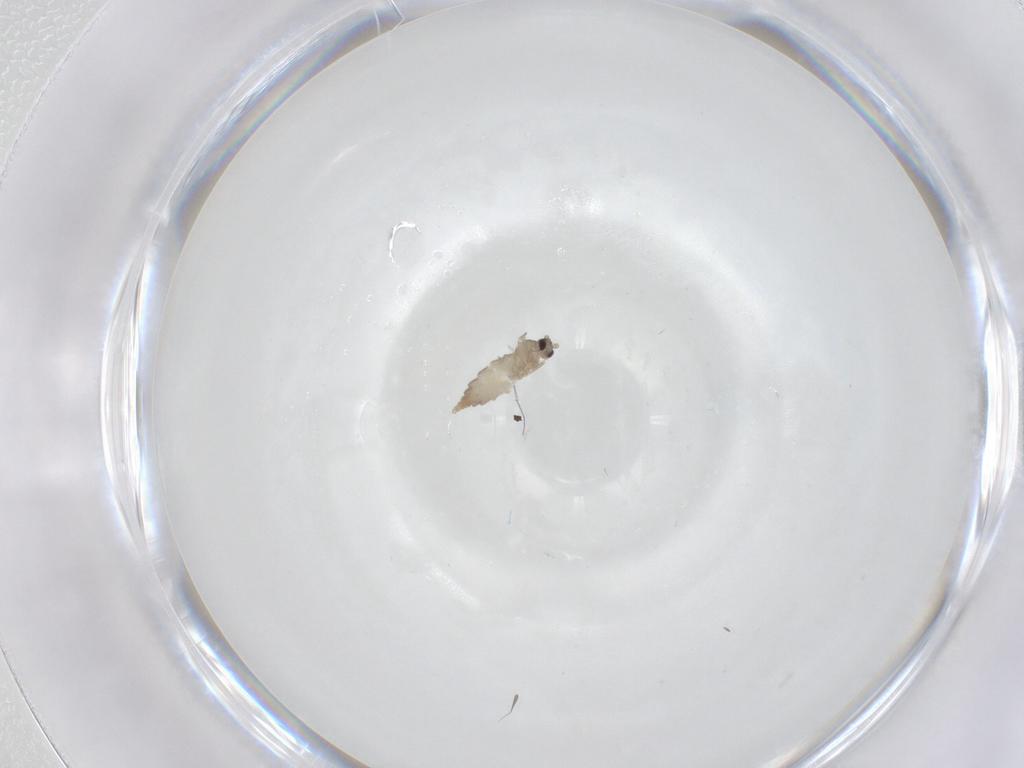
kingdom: Animalia
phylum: Arthropoda
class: Insecta
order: Diptera
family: Cecidomyiidae
